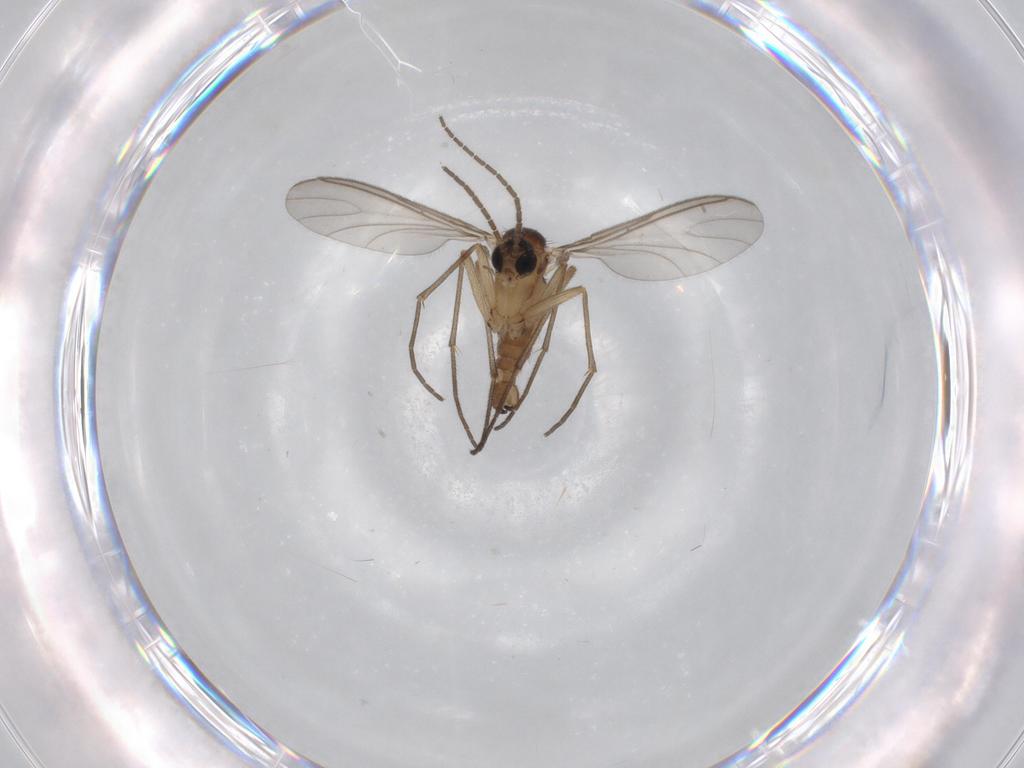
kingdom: Animalia
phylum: Arthropoda
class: Insecta
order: Diptera
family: Sciaridae
